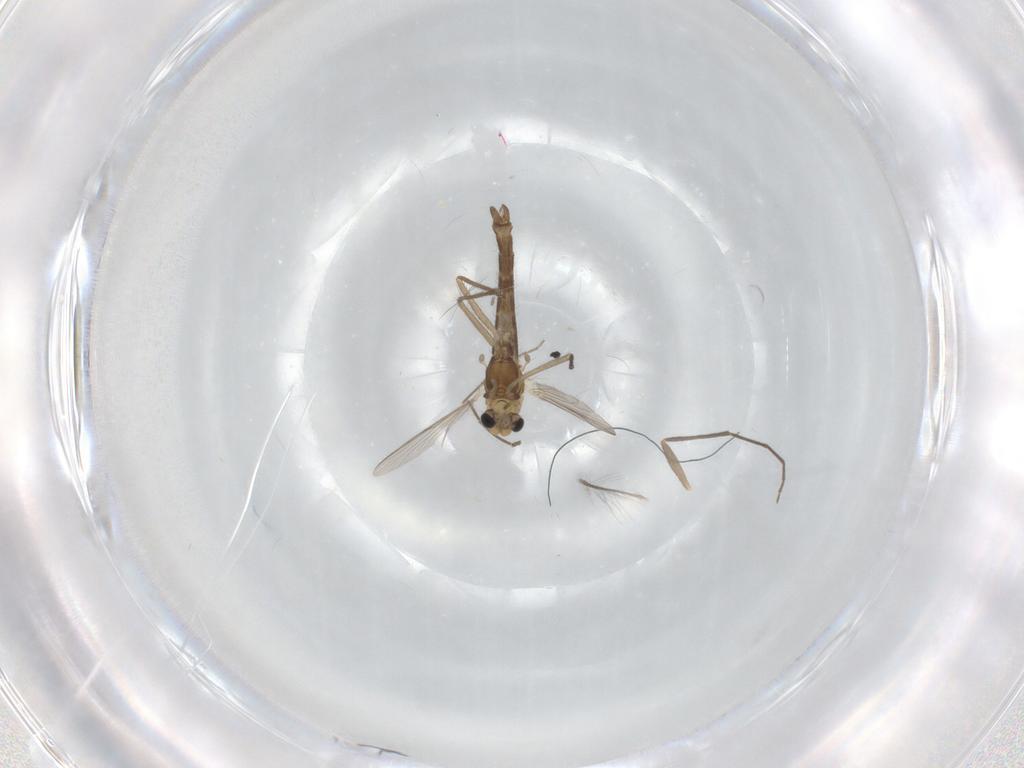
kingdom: Animalia
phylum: Arthropoda
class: Insecta
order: Diptera
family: Chironomidae
